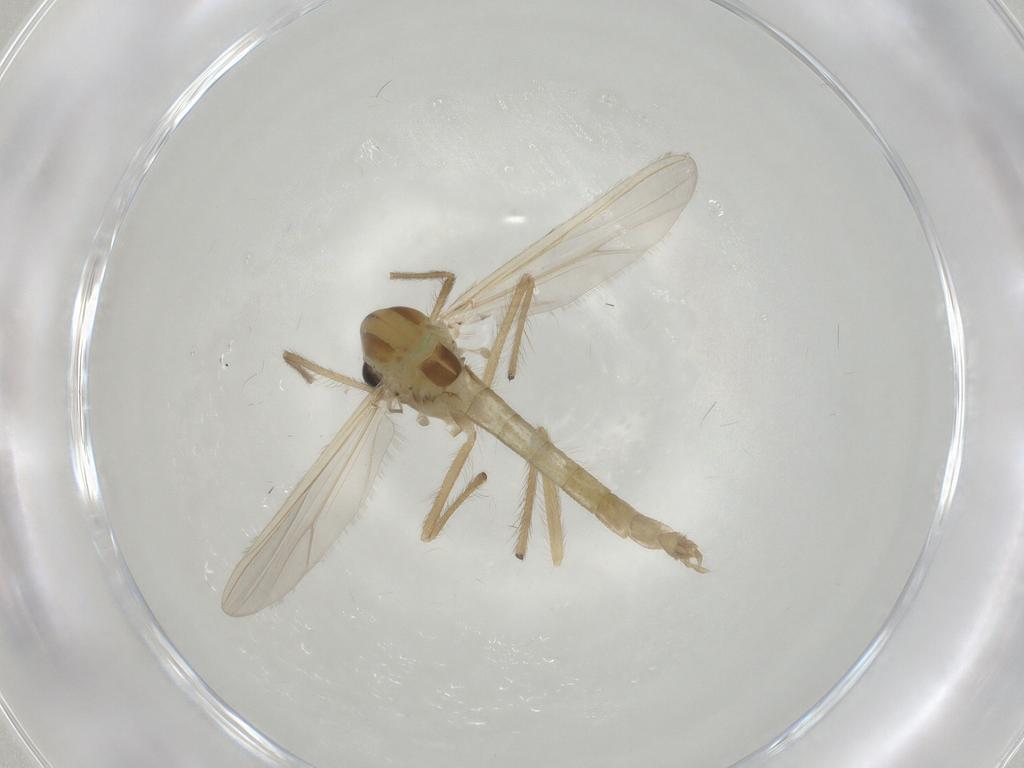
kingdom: Animalia
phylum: Arthropoda
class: Insecta
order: Diptera
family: Chironomidae
